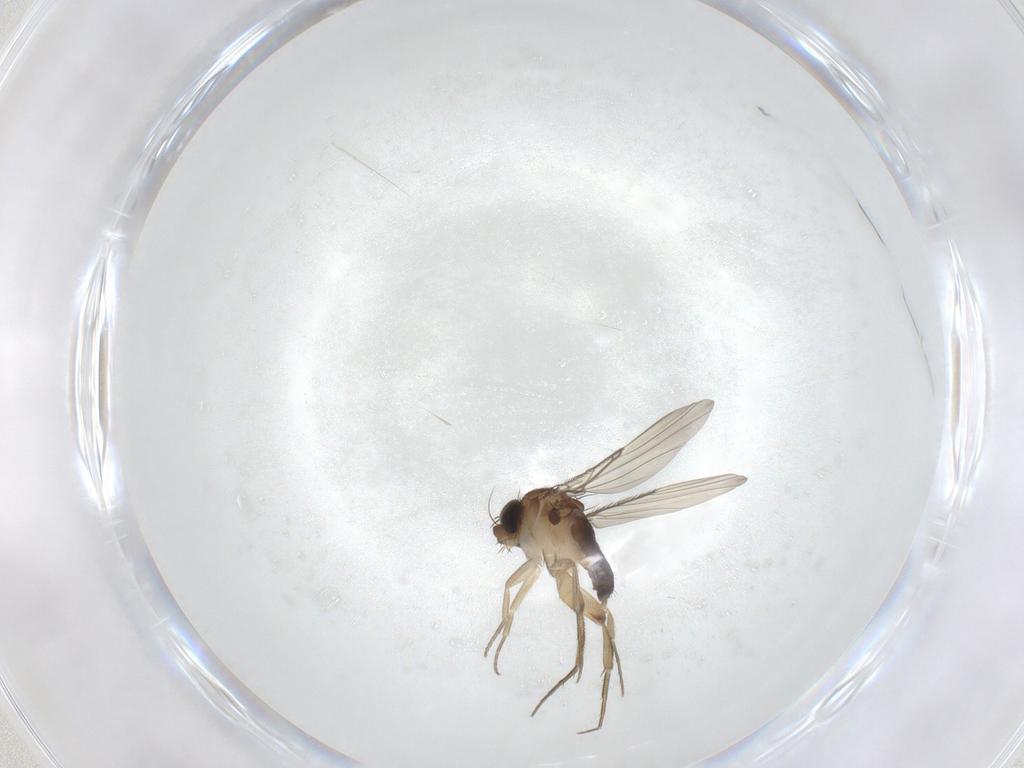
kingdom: Animalia
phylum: Arthropoda
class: Insecta
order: Diptera
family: Phoridae
